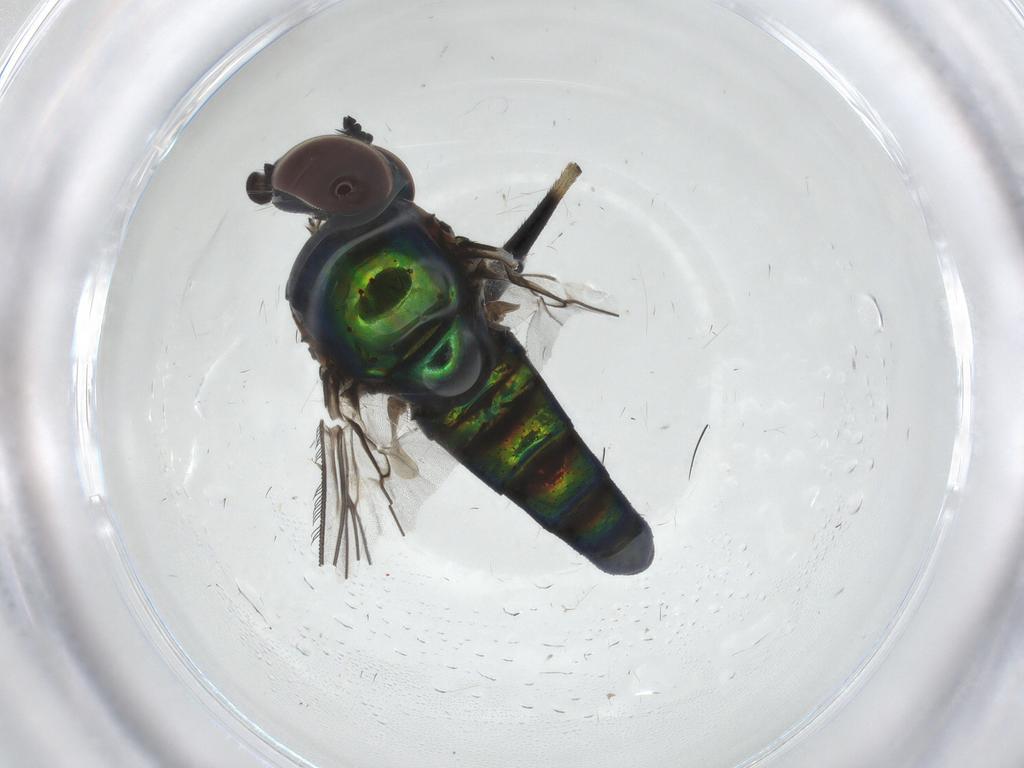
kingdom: Animalia
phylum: Arthropoda
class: Insecta
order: Diptera
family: Dolichopodidae
